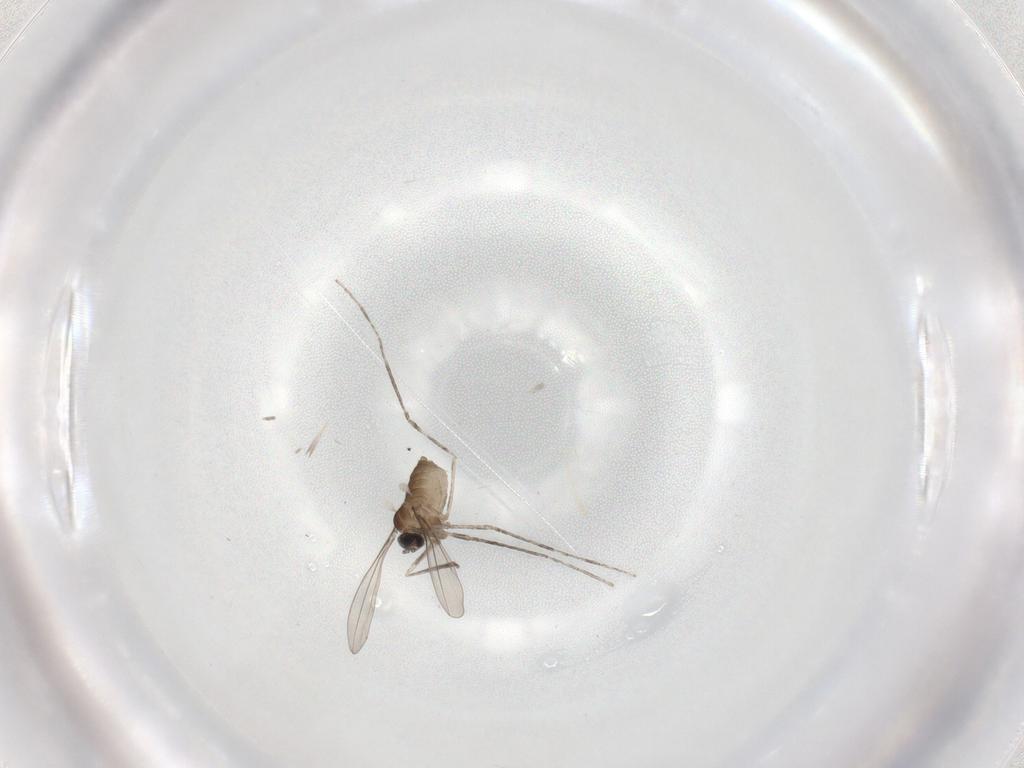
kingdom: Animalia
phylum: Arthropoda
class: Insecta
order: Diptera
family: Cecidomyiidae
